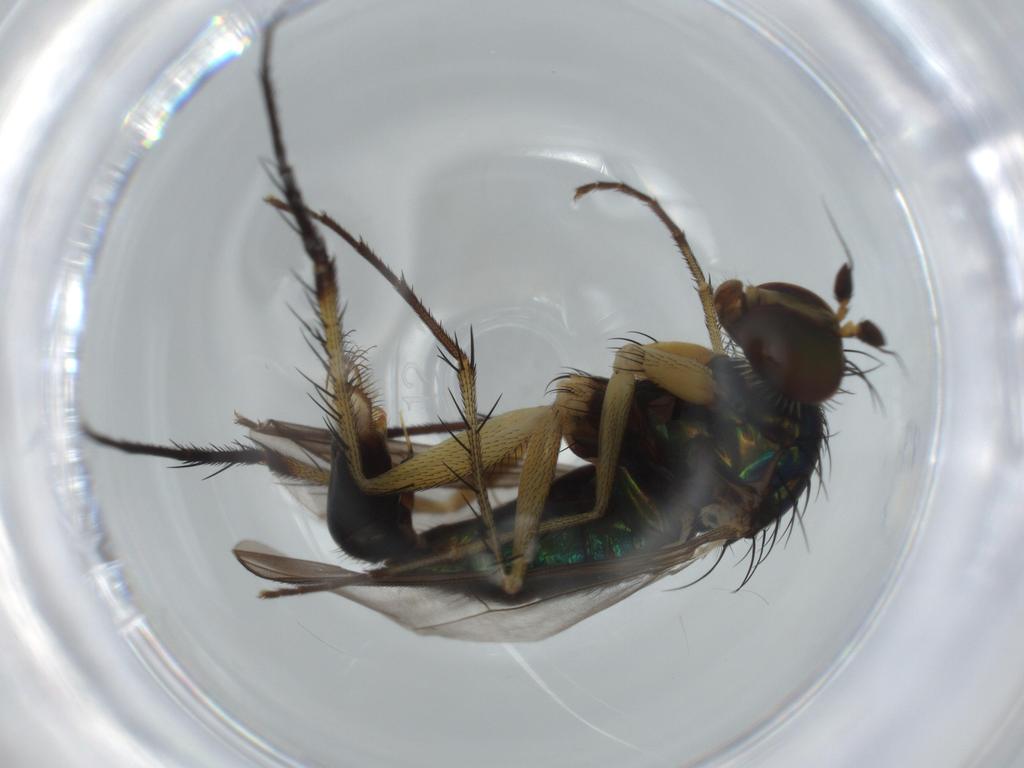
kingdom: Animalia
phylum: Arthropoda
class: Insecta
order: Diptera
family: Dolichopodidae
